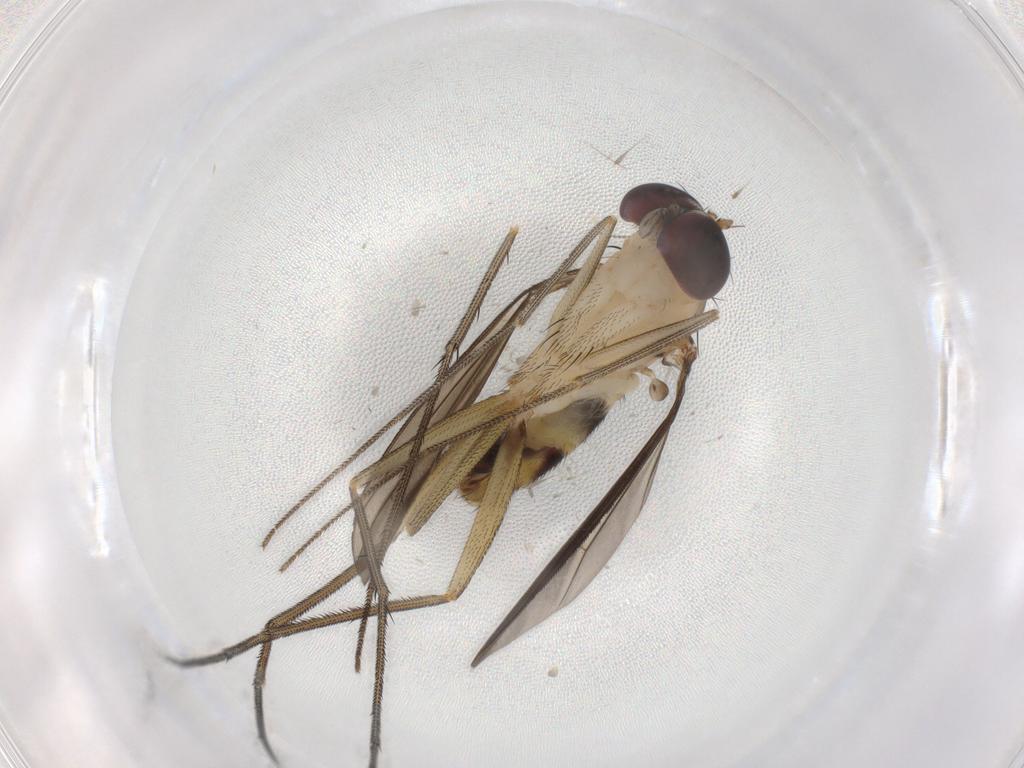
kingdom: Animalia
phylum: Arthropoda
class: Insecta
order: Diptera
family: Dolichopodidae
